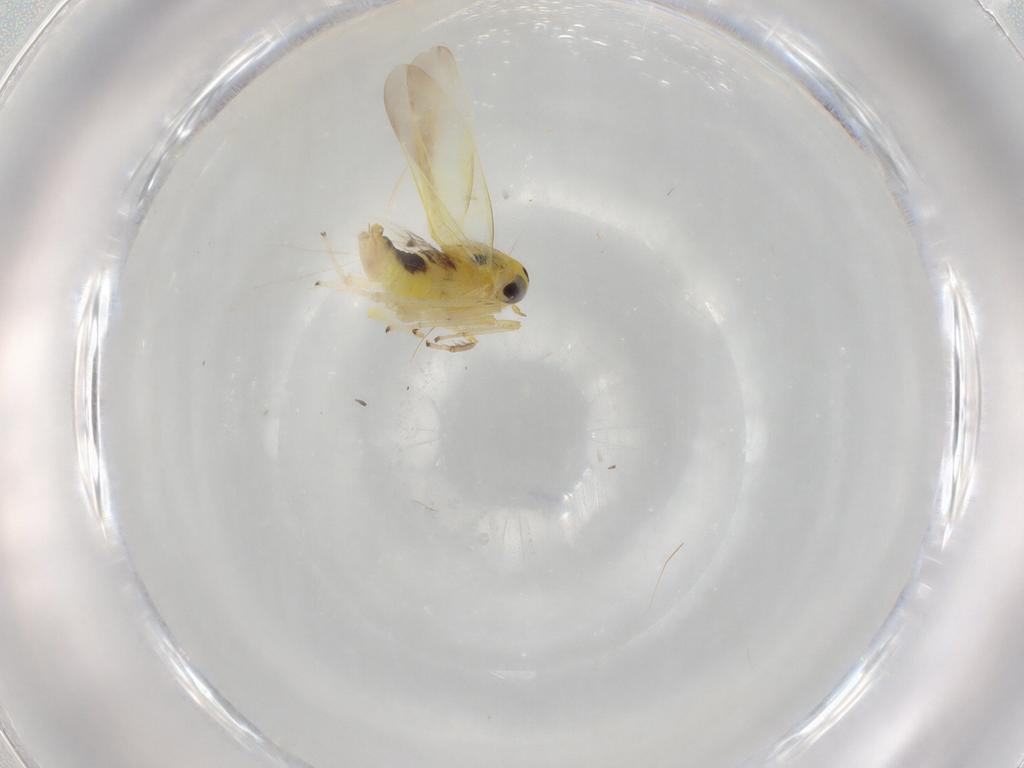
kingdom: Animalia
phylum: Arthropoda
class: Insecta
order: Hemiptera
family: Cicadellidae
